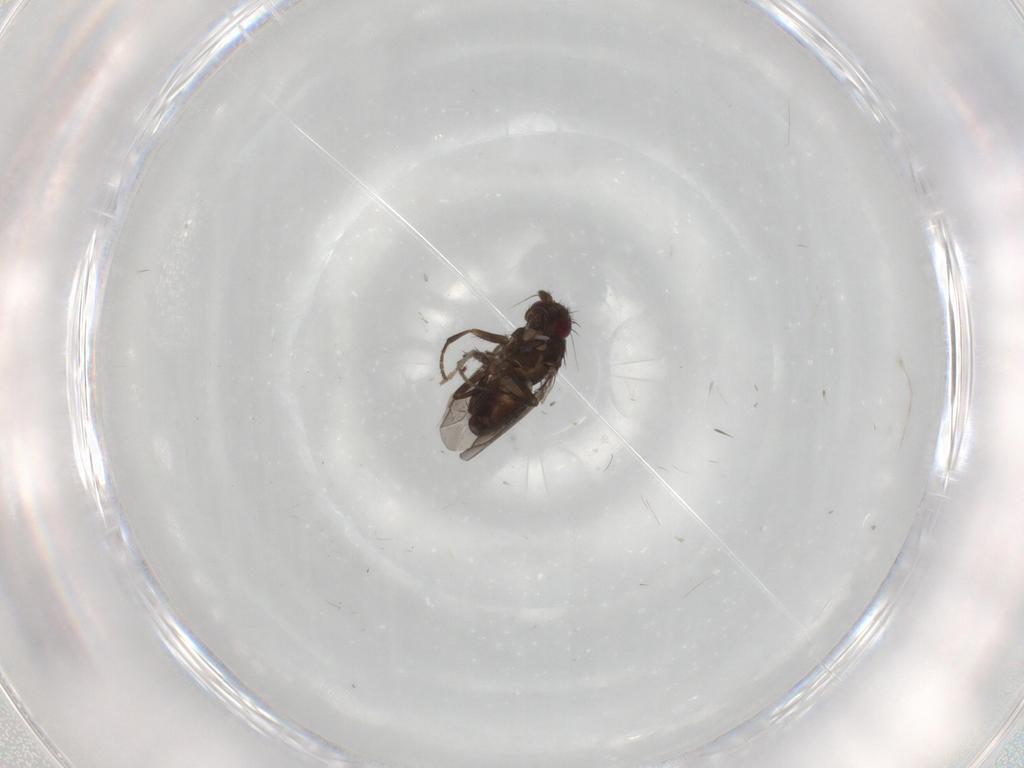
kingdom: Animalia
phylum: Arthropoda
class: Insecta
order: Diptera
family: Sphaeroceridae
